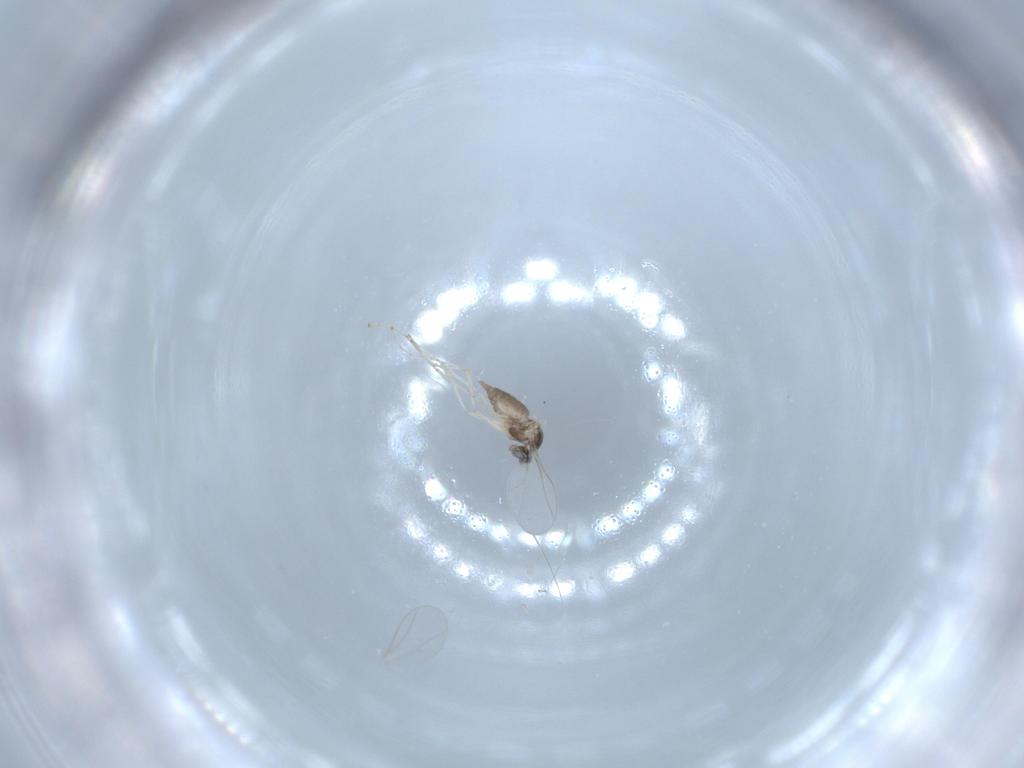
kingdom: Animalia
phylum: Arthropoda
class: Insecta
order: Diptera
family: Cecidomyiidae
